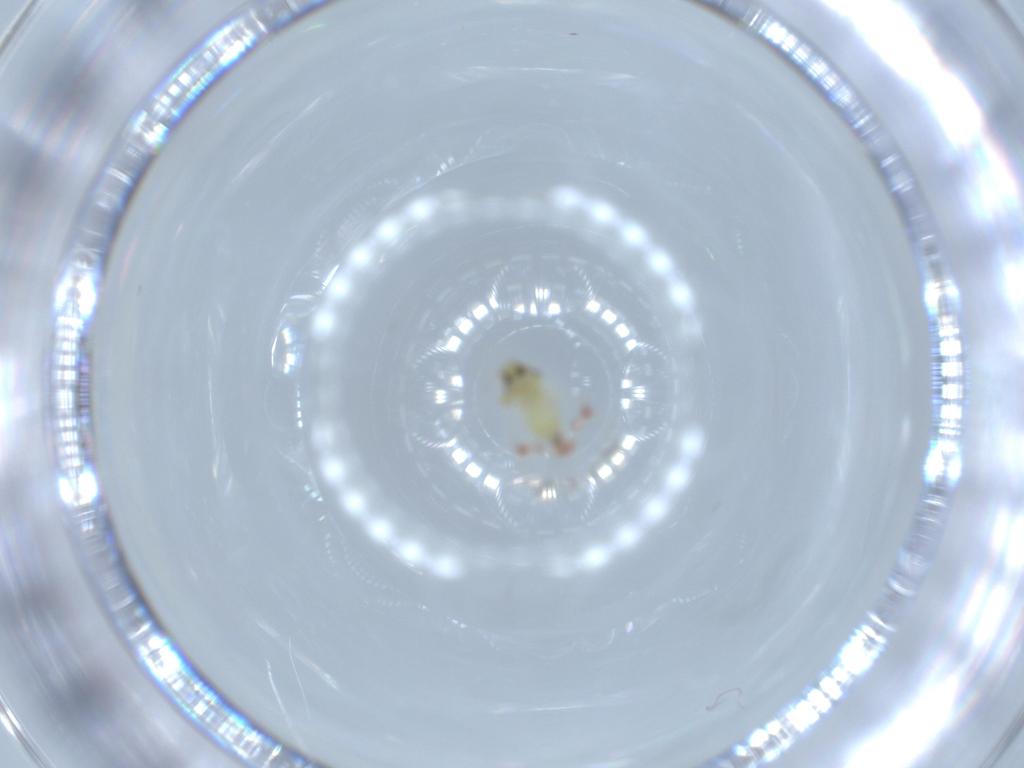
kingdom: Animalia
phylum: Arthropoda
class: Insecta
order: Hemiptera
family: Aleyrodidae
